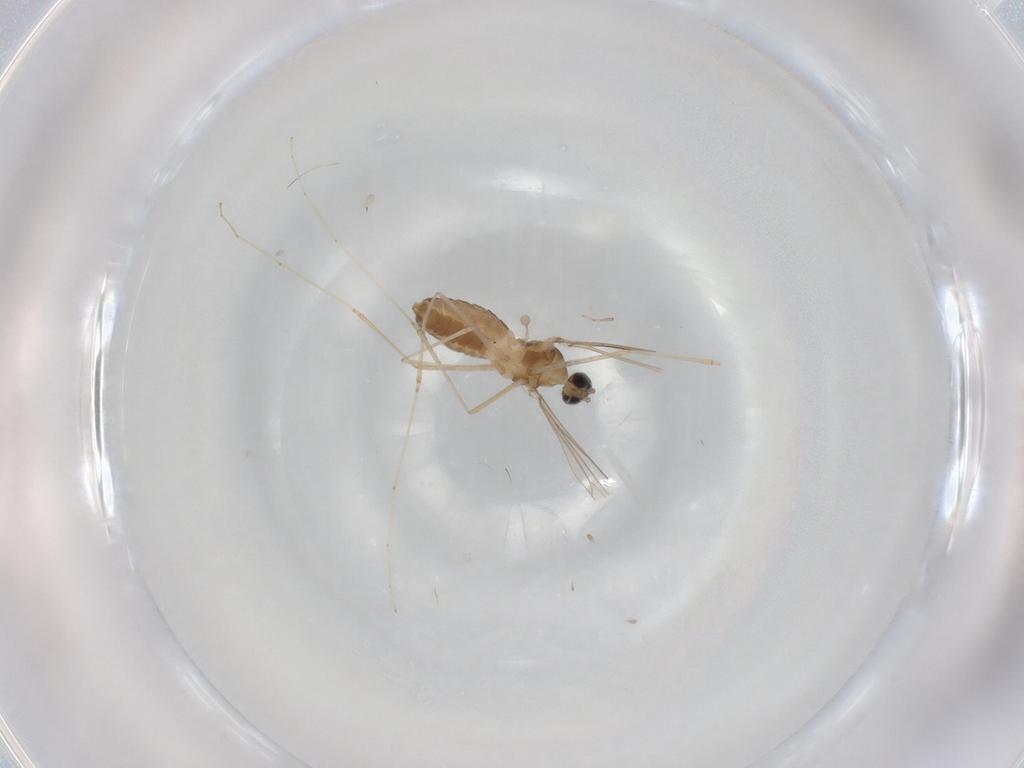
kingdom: Animalia
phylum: Arthropoda
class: Insecta
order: Diptera
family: Cecidomyiidae
